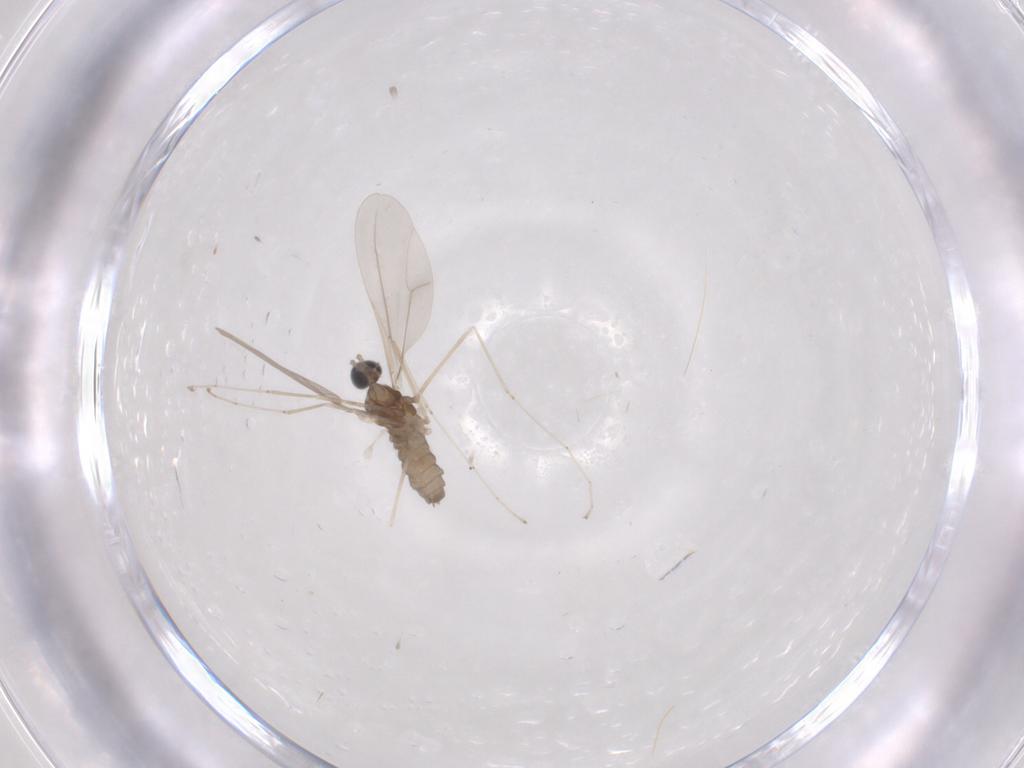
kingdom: Animalia
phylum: Arthropoda
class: Insecta
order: Diptera
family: Cecidomyiidae
